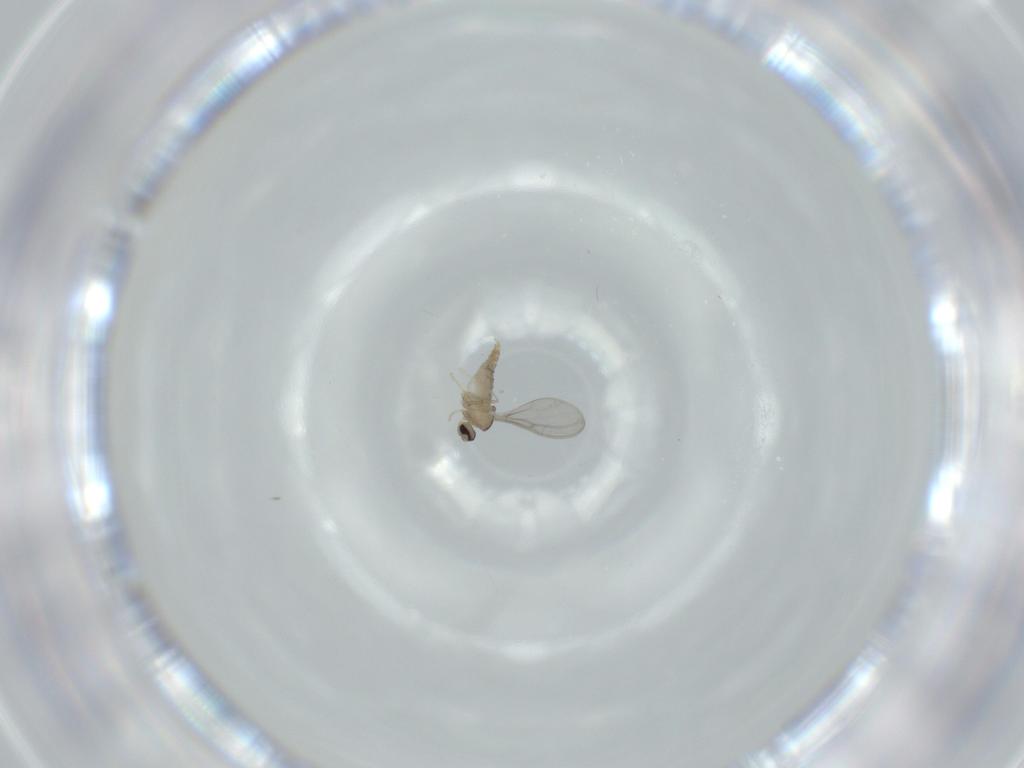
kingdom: Animalia
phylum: Arthropoda
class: Insecta
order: Diptera
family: Cecidomyiidae
